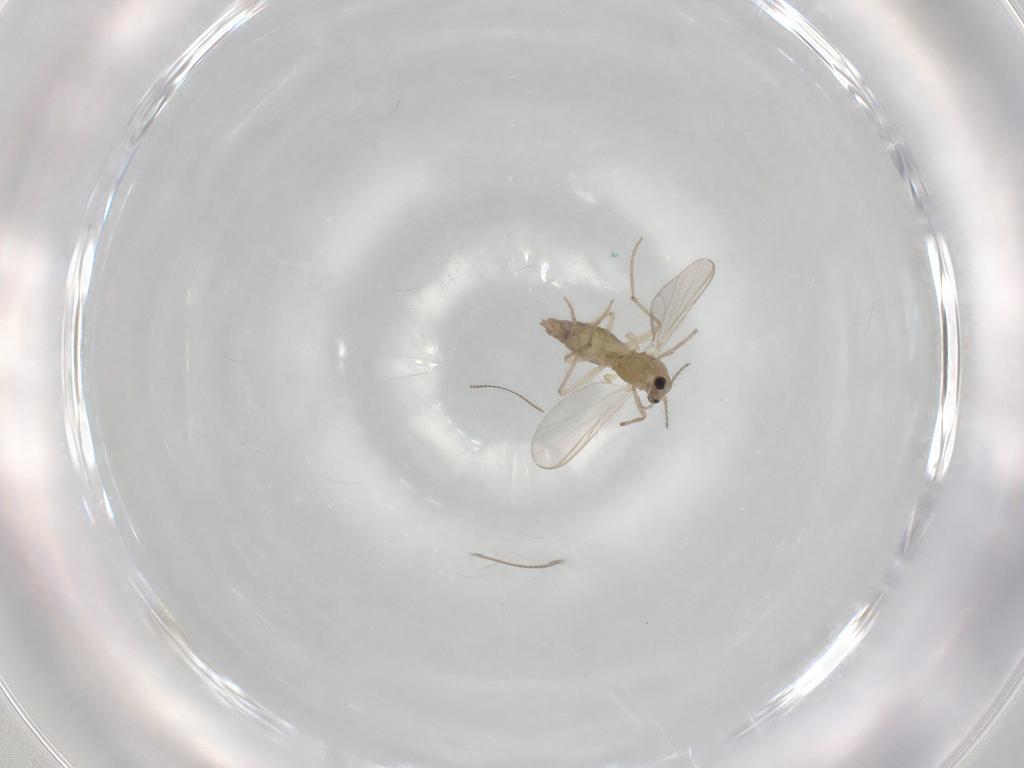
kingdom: Animalia
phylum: Arthropoda
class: Insecta
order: Diptera
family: Chironomidae
